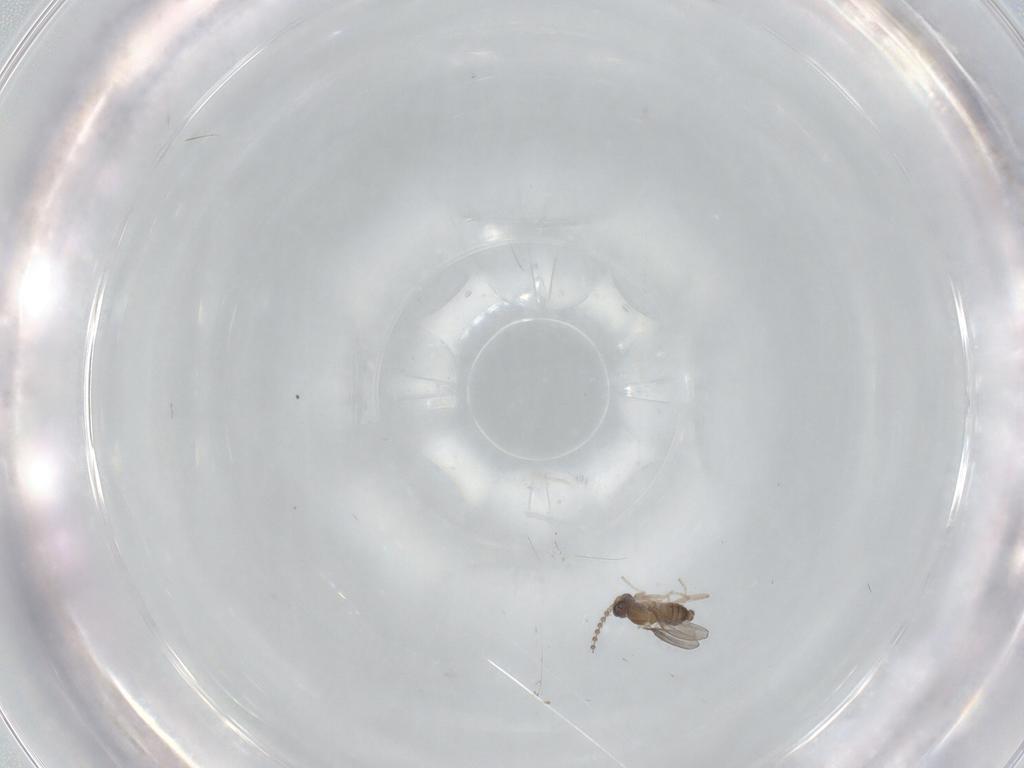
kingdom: Animalia
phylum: Arthropoda
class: Insecta
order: Diptera
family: Cecidomyiidae
